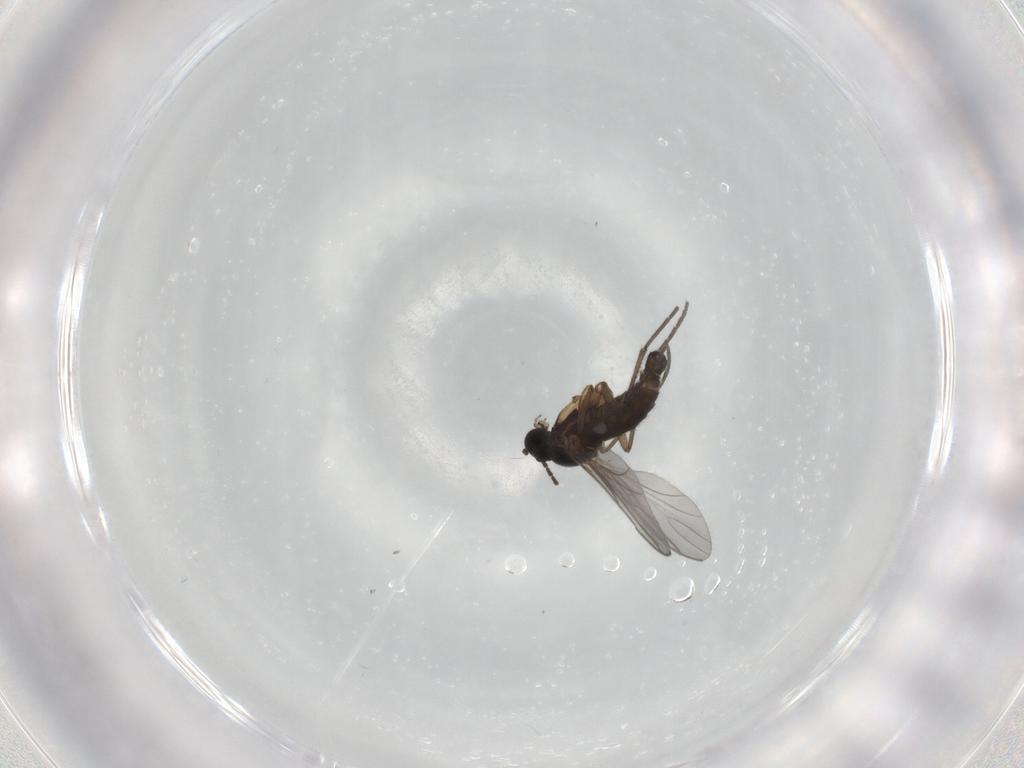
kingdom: Animalia
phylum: Arthropoda
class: Insecta
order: Diptera
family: Sciaridae
